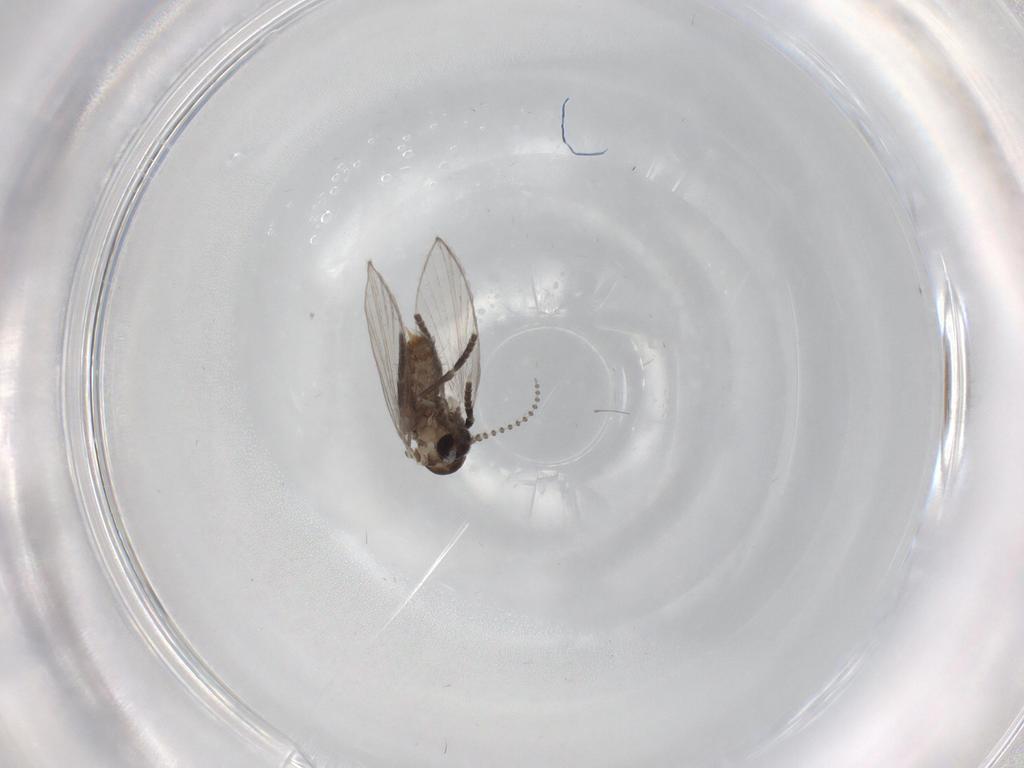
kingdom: Animalia
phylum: Arthropoda
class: Insecta
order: Diptera
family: Psychodidae
